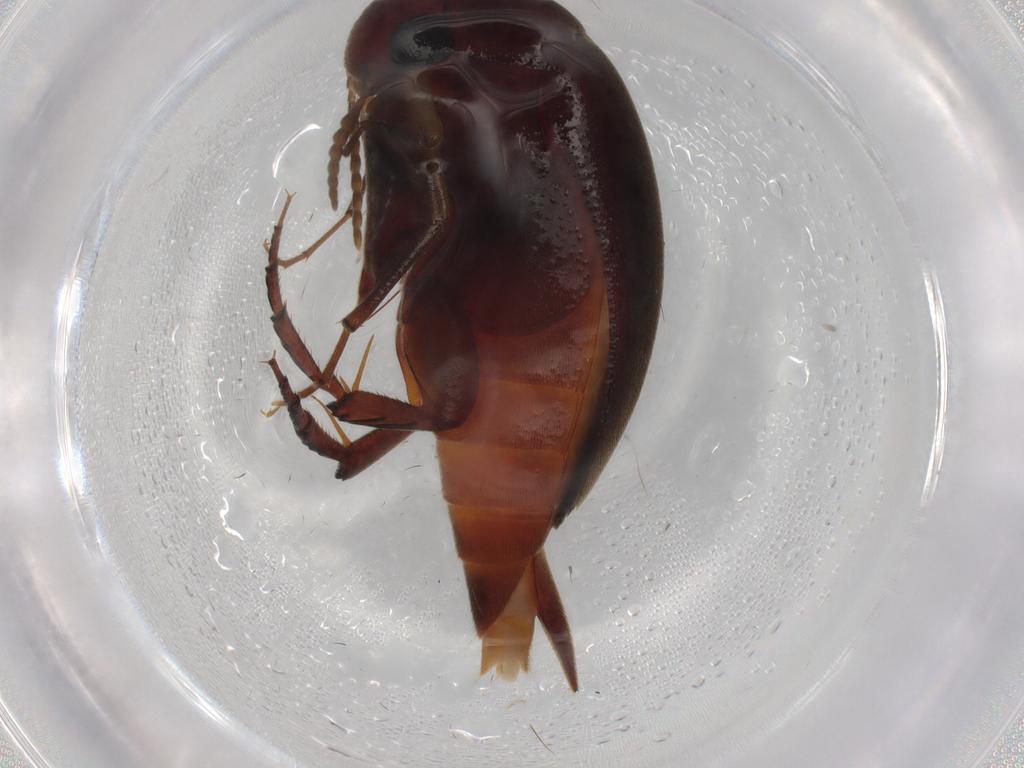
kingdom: Animalia
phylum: Arthropoda
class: Insecta
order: Coleoptera
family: Mordellidae
